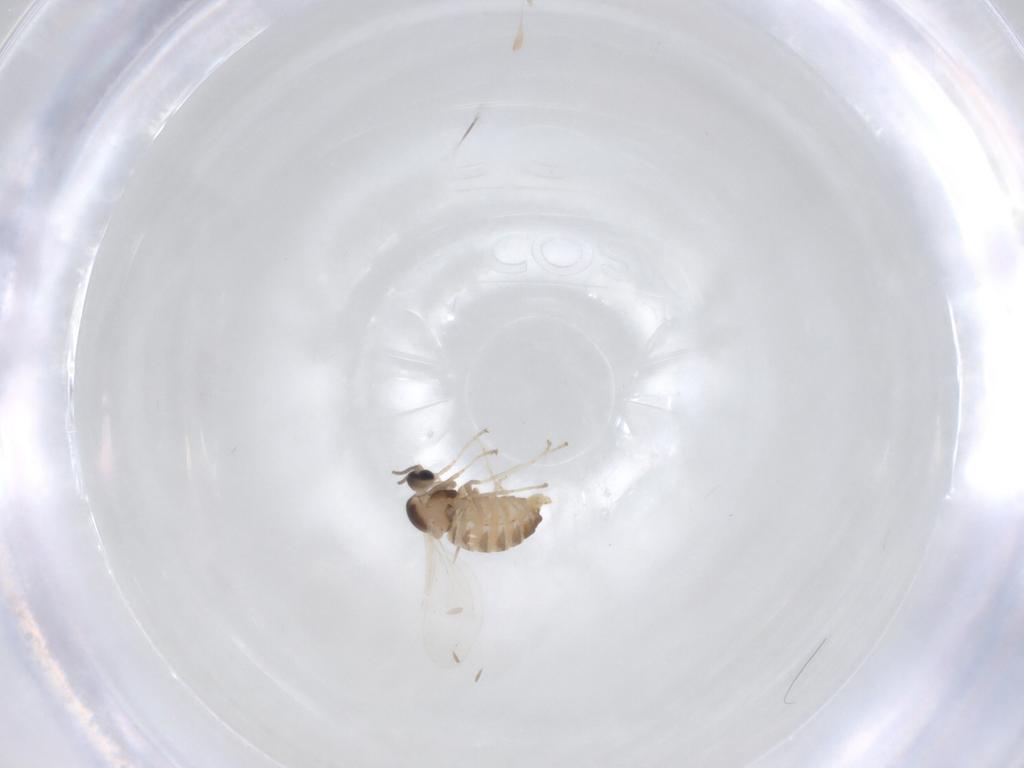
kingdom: Animalia
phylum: Arthropoda
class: Insecta
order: Diptera
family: Cecidomyiidae
